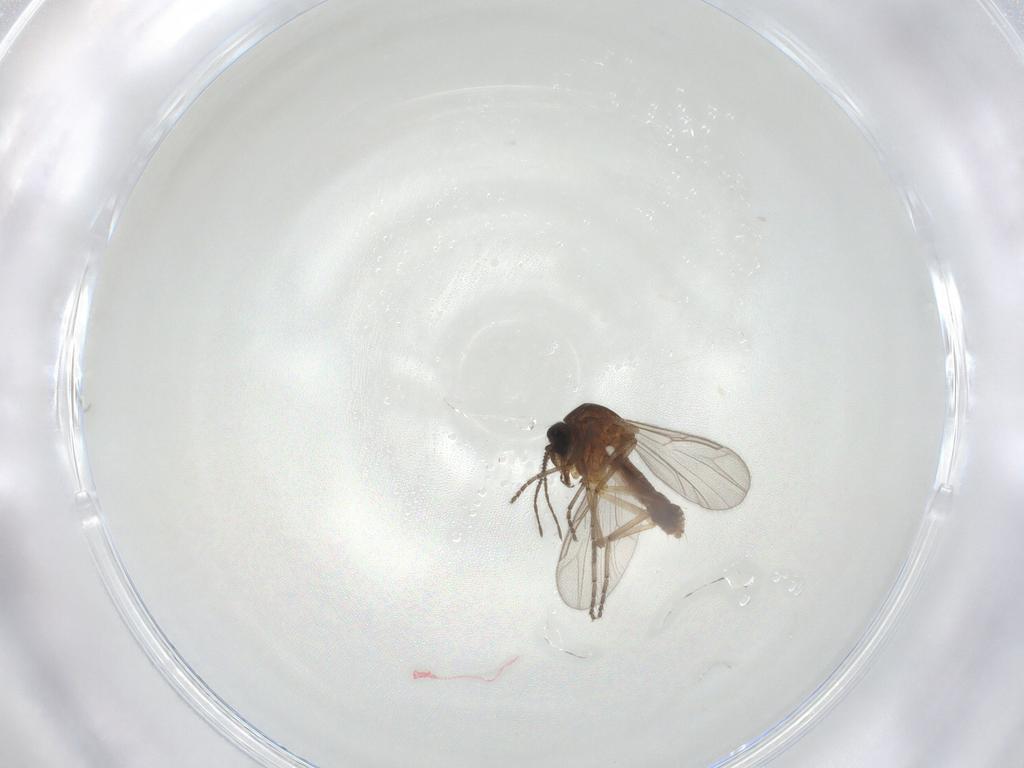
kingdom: Animalia
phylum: Arthropoda
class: Insecta
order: Diptera
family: Ceratopogonidae
